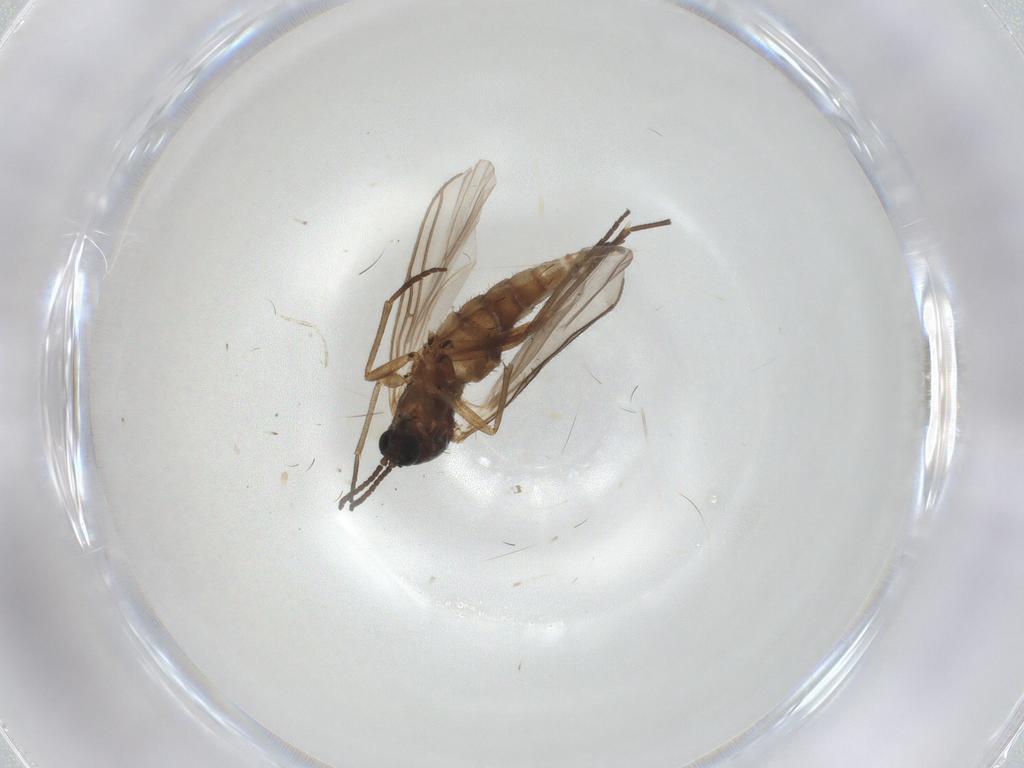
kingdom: Animalia
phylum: Arthropoda
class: Insecta
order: Diptera
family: Sciaridae
